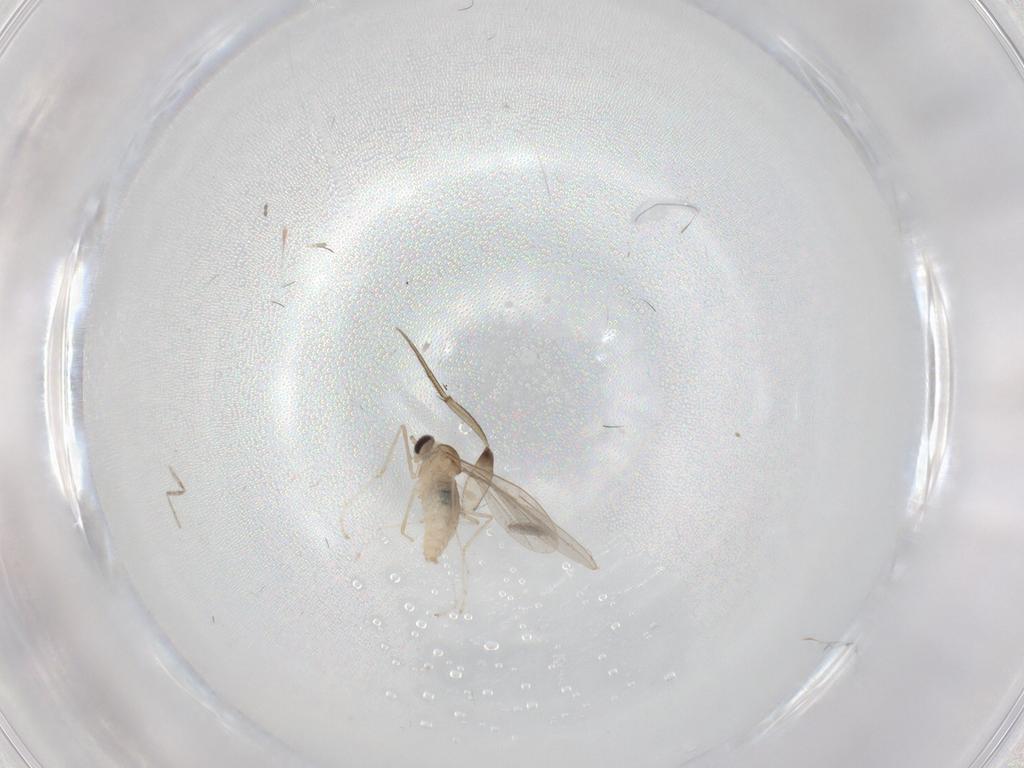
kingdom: Animalia
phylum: Arthropoda
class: Insecta
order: Diptera
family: Cecidomyiidae
